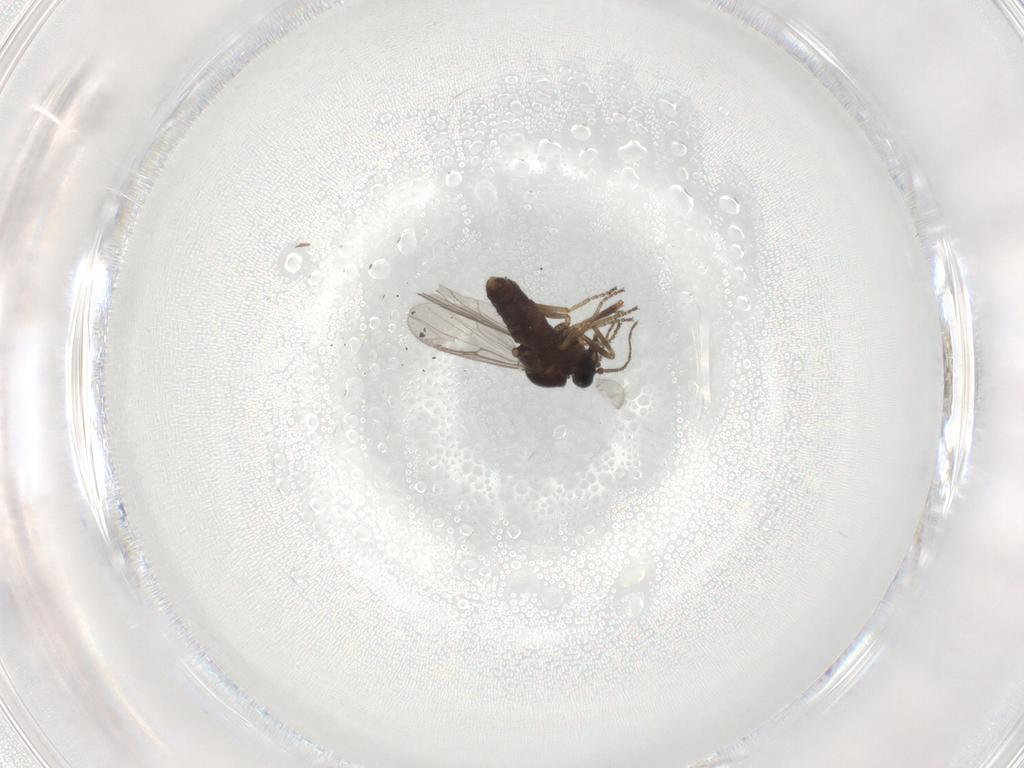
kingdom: Animalia
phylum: Arthropoda
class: Insecta
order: Diptera
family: Ceratopogonidae
